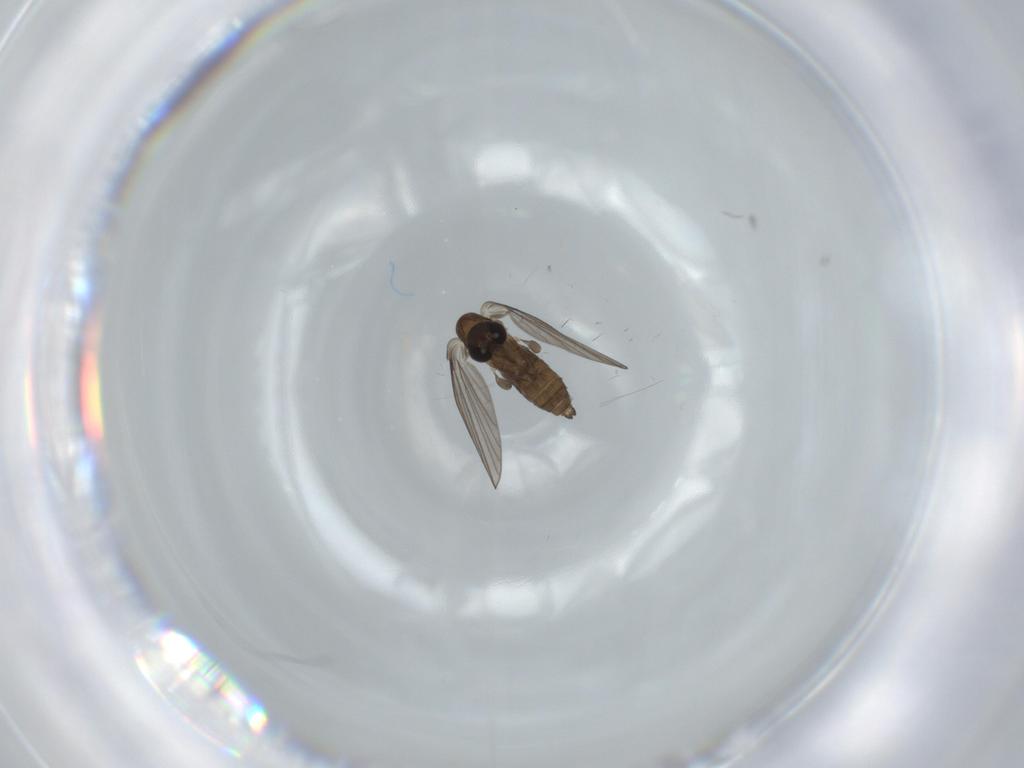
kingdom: Animalia
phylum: Arthropoda
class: Insecta
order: Diptera
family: Psychodidae
